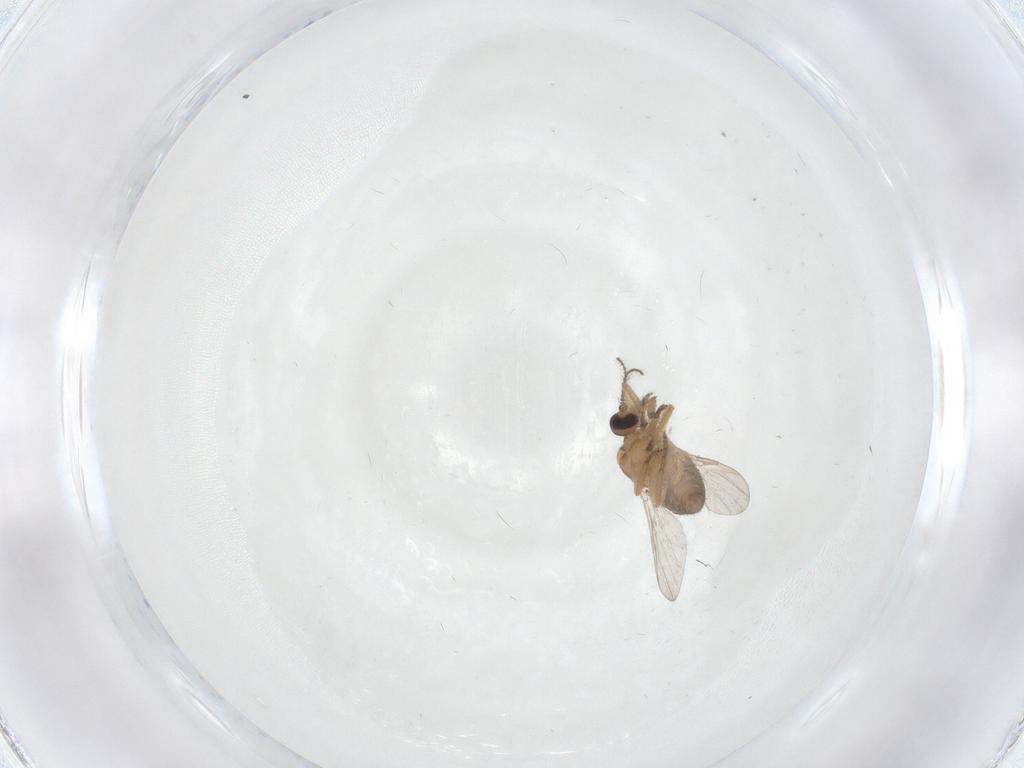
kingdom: Animalia
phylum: Arthropoda
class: Insecta
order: Diptera
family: Ceratopogonidae
